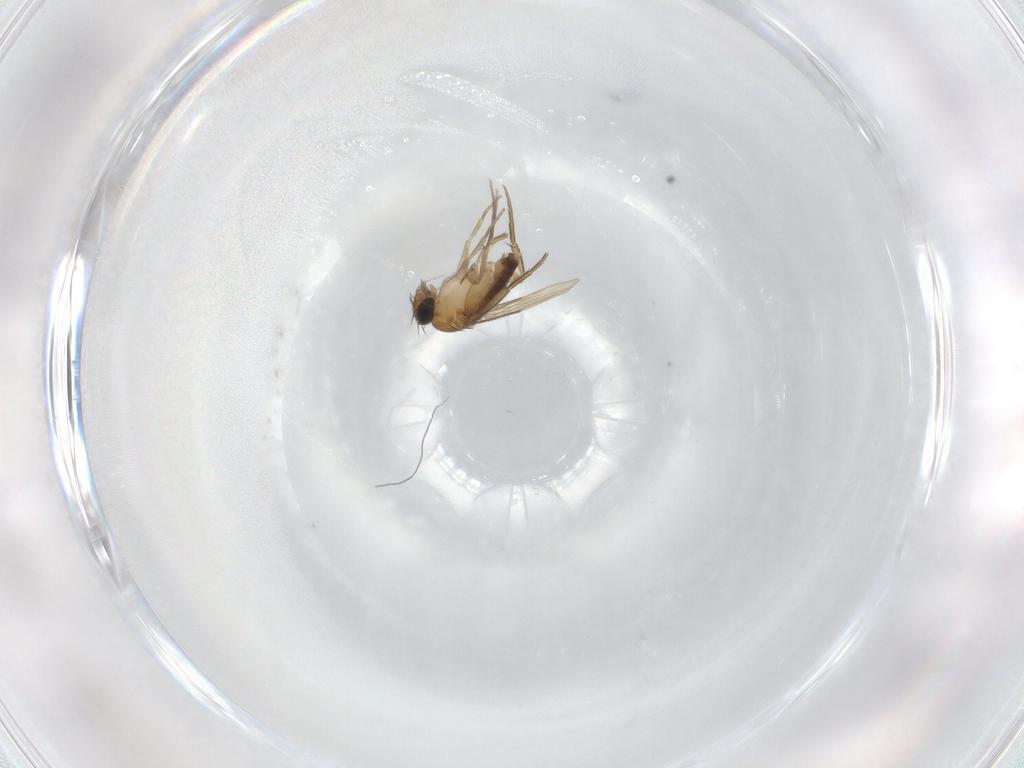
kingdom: Animalia
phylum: Arthropoda
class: Insecta
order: Diptera
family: Phoridae
